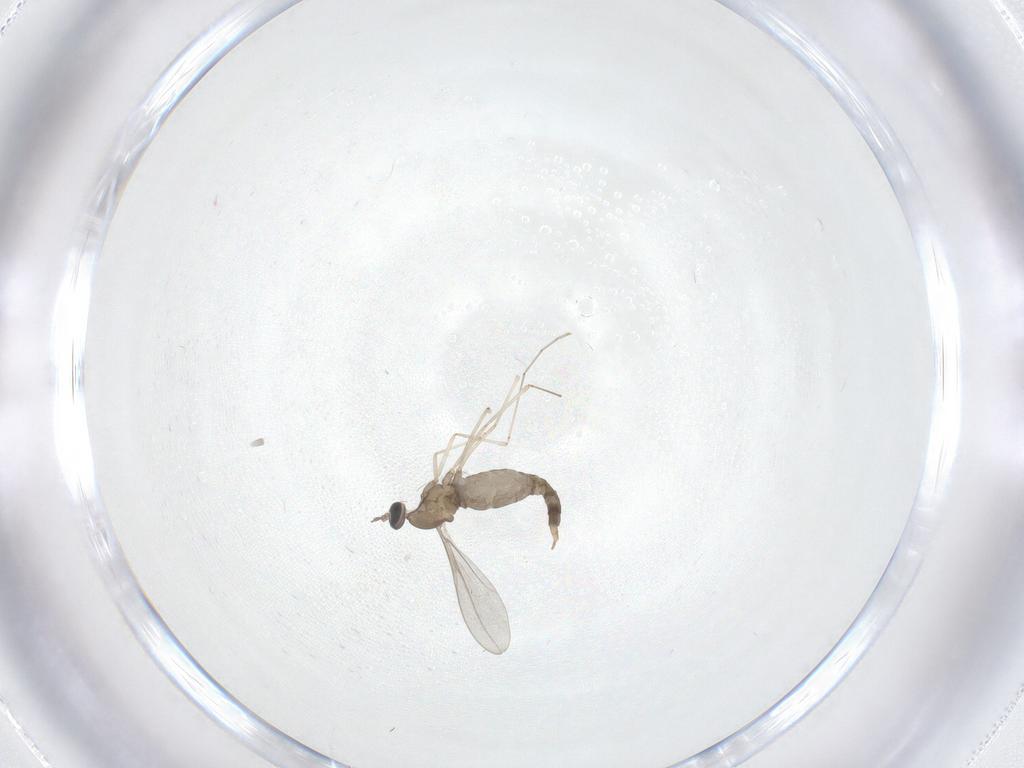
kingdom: Animalia
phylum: Arthropoda
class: Insecta
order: Diptera
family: Cecidomyiidae
